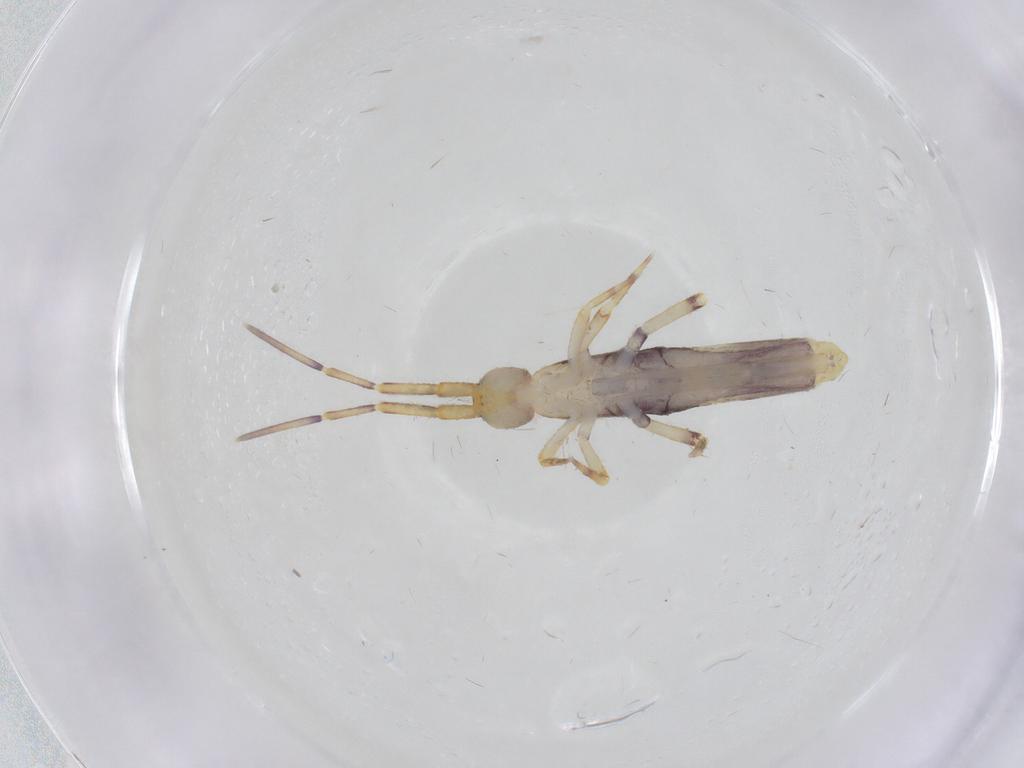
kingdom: Animalia
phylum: Arthropoda
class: Collembola
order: Entomobryomorpha
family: Entomobryidae
